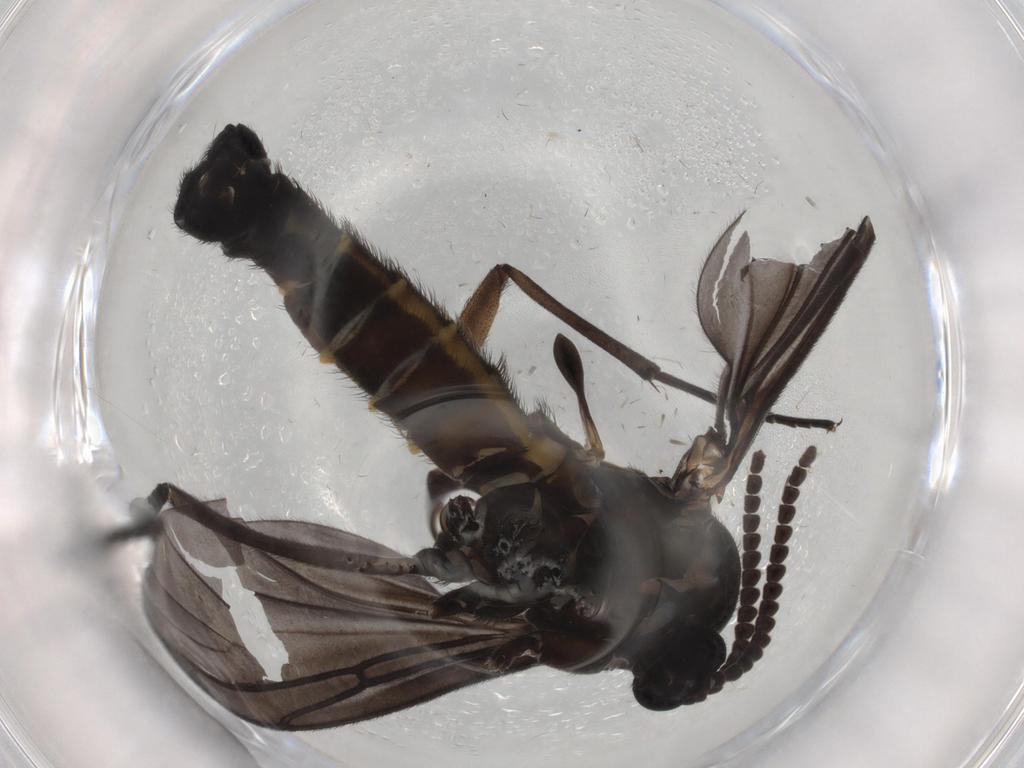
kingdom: Animalia
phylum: Arthropoda
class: Insecta
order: Diptera
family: Sciaridae
